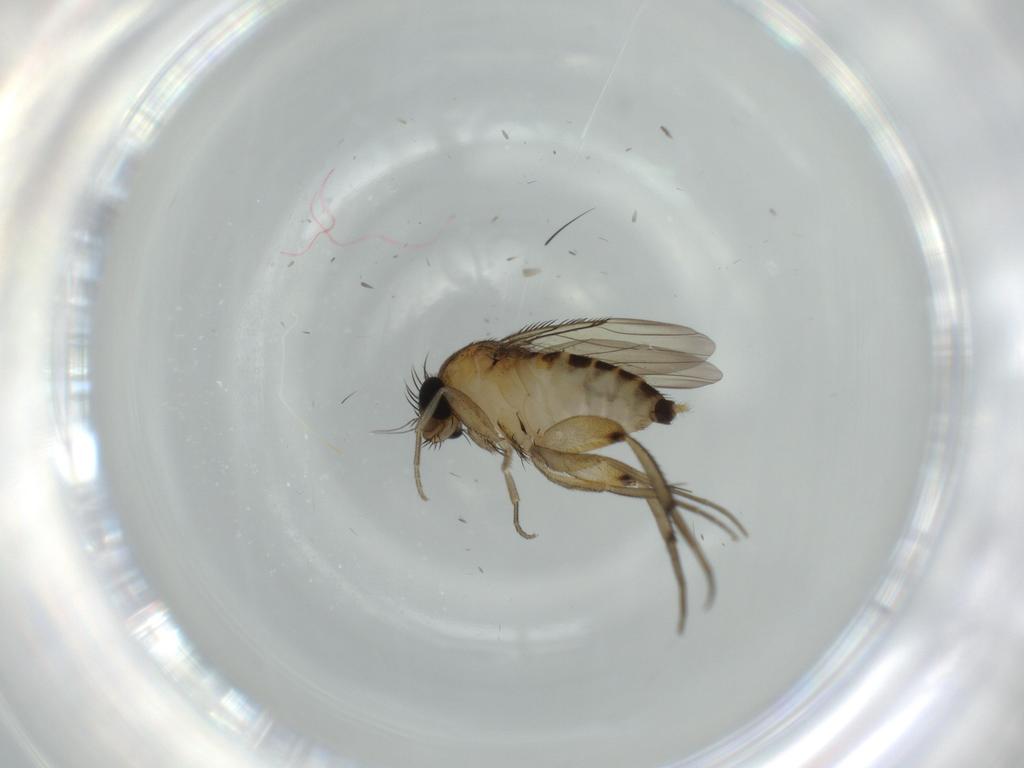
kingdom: Animalia
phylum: Arthropoda
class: Insecta
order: Diptera
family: Phoridae
